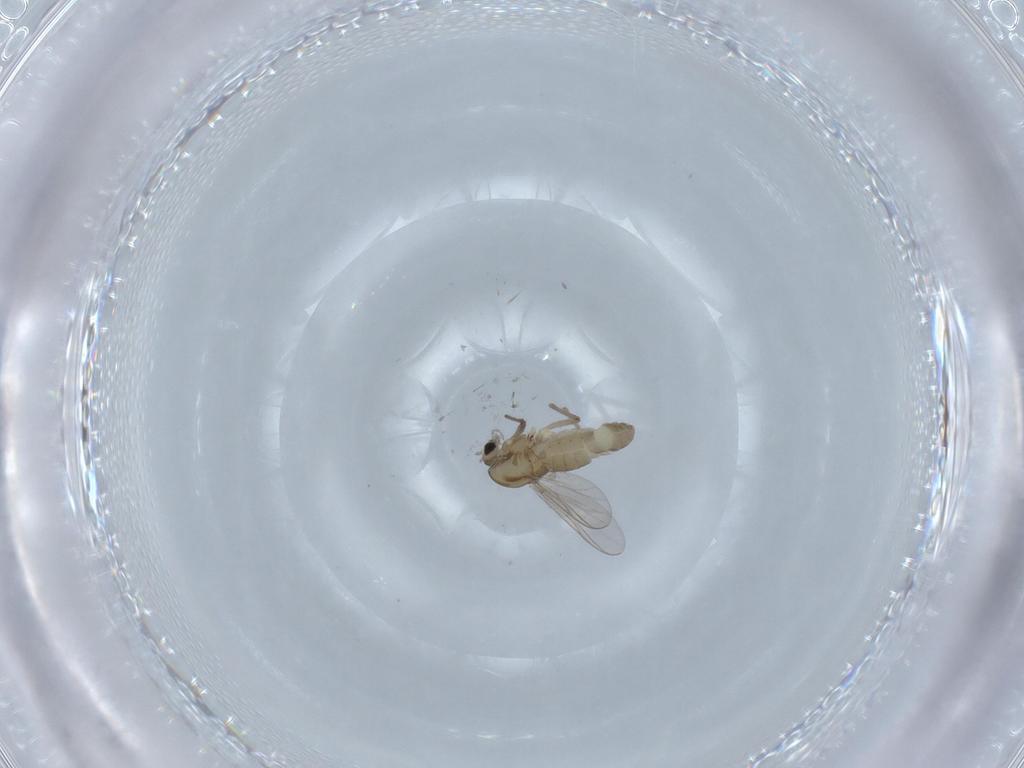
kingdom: Animalia
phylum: Arthropoda
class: Insecta
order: Diptera
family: Chironomidae
